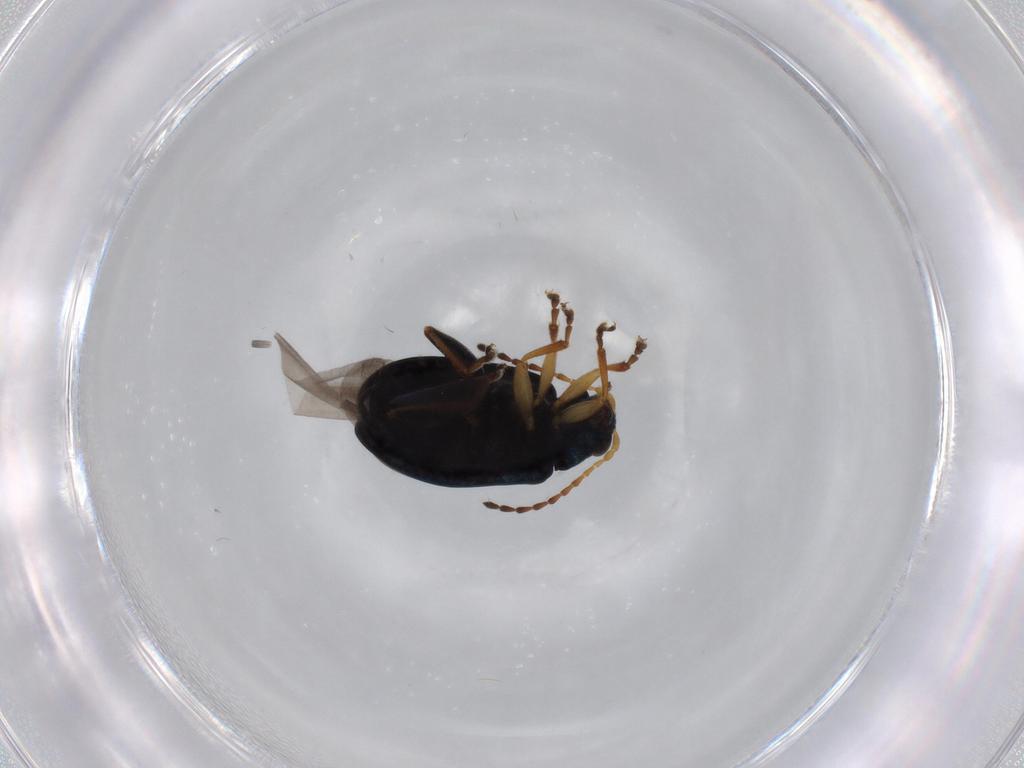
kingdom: Animalia
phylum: Arthropoda
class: Insecta
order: Coleoptera
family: Chrysomelidae
